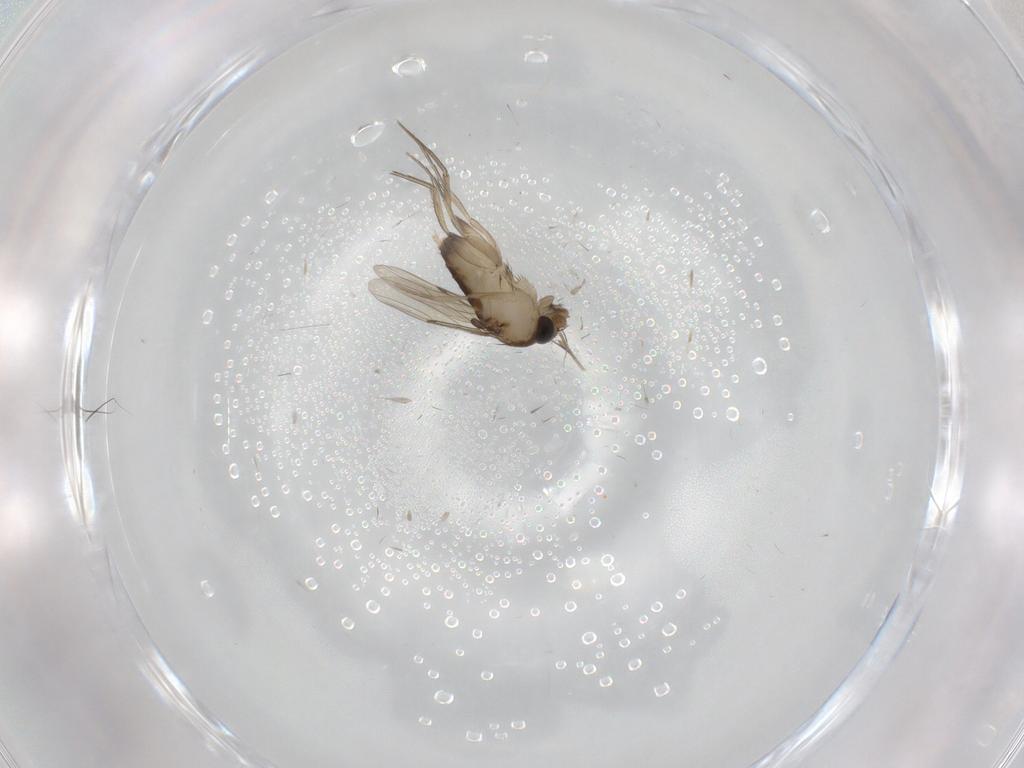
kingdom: Animalia
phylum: Arthropoda
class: Insecta
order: Diptera
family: Phoridae
